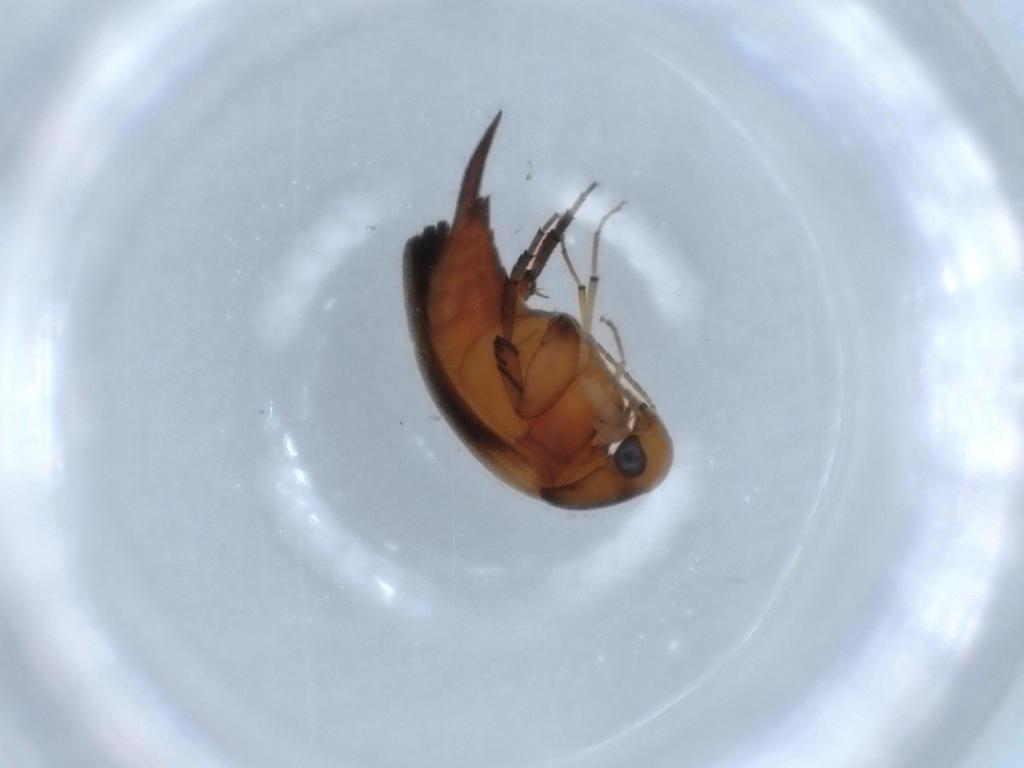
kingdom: Animalia
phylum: Arthropoda
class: Insecta
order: Coleoptera
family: Mordellidae
